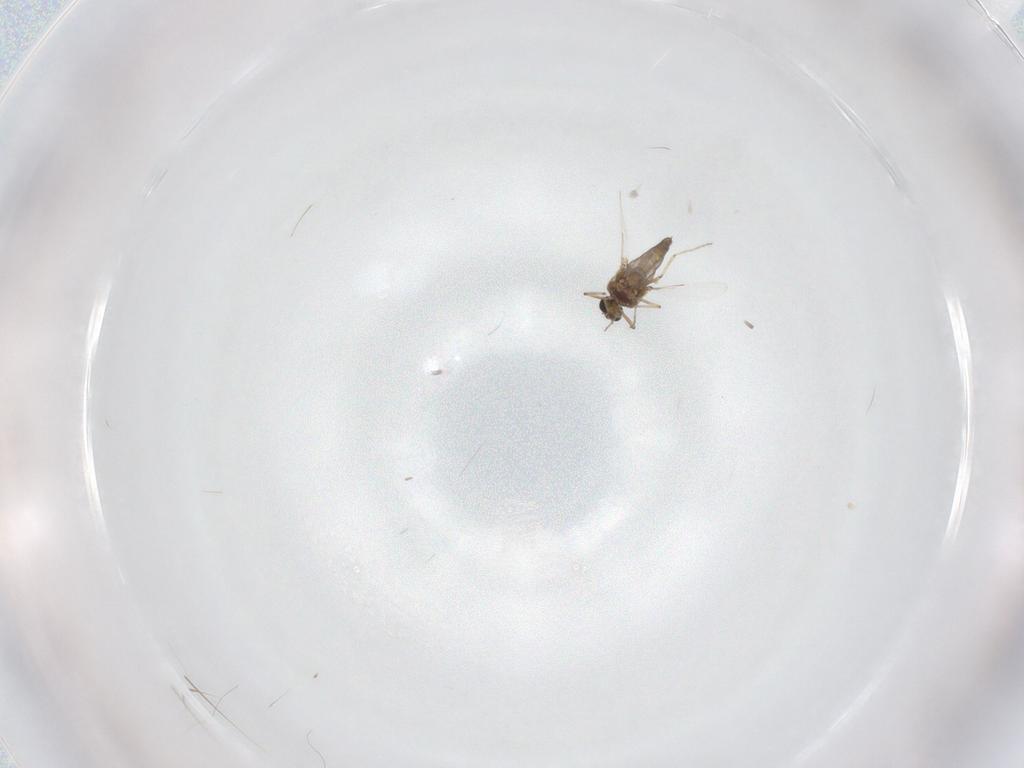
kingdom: Animalia
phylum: Arthropoda
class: Insecta
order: Diptera
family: Ceratopogonidae
